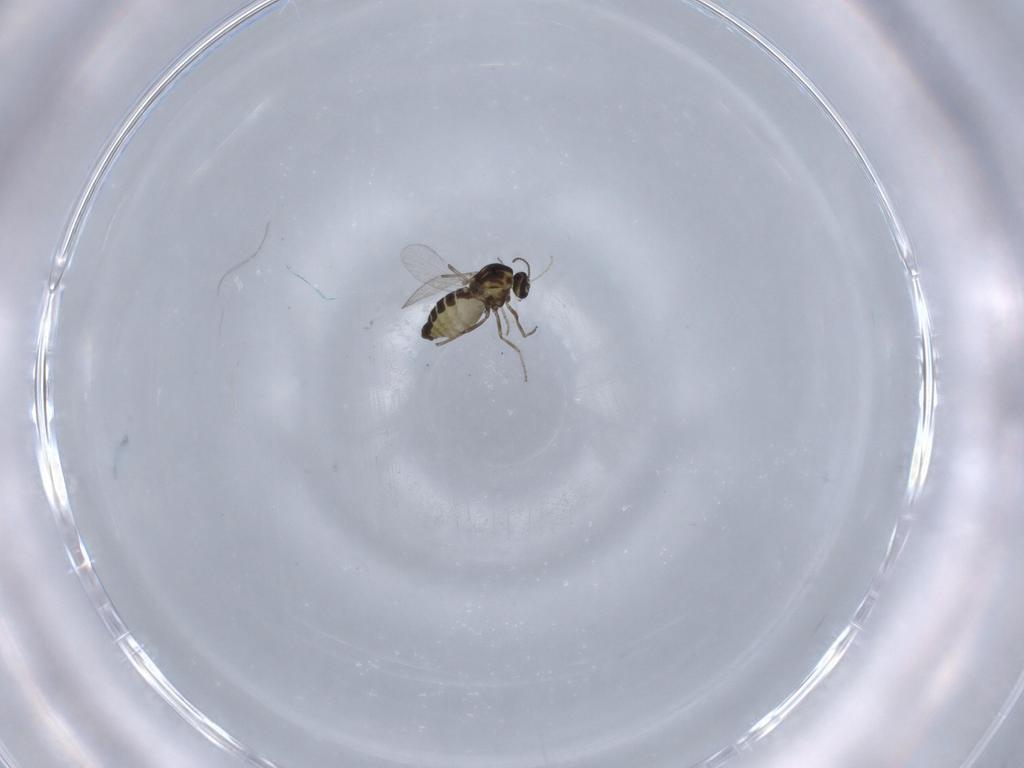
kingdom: Animalia
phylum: Arthropoda
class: Insecta
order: Diptera
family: Ceratopogonidae
